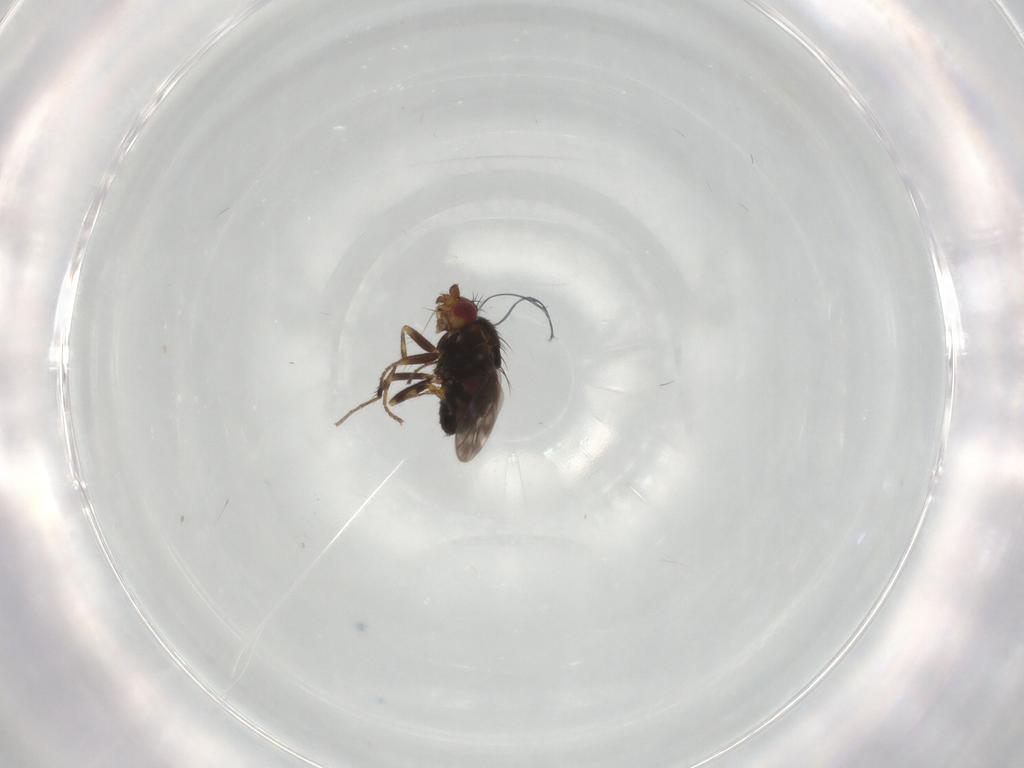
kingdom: Animalia
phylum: Arthropoda
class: Insecta
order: Diptera
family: Sphaeroceridae
